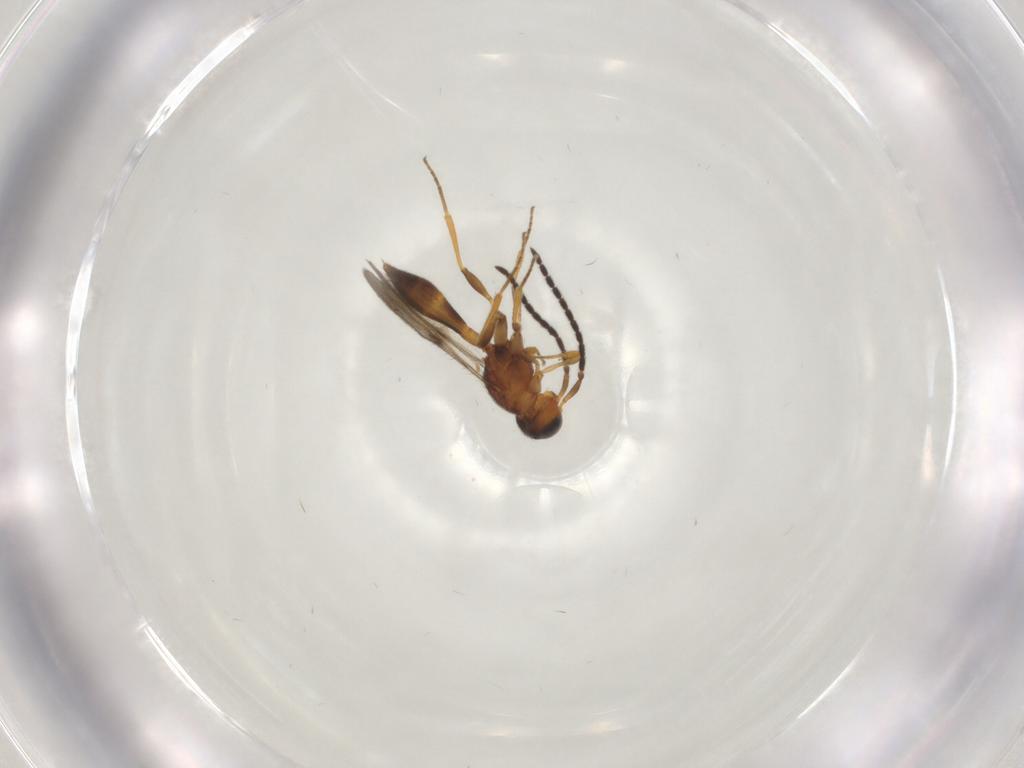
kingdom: Animalia
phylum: Arthropoda
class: Insecta
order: Hymenoptera
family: Formicidae
